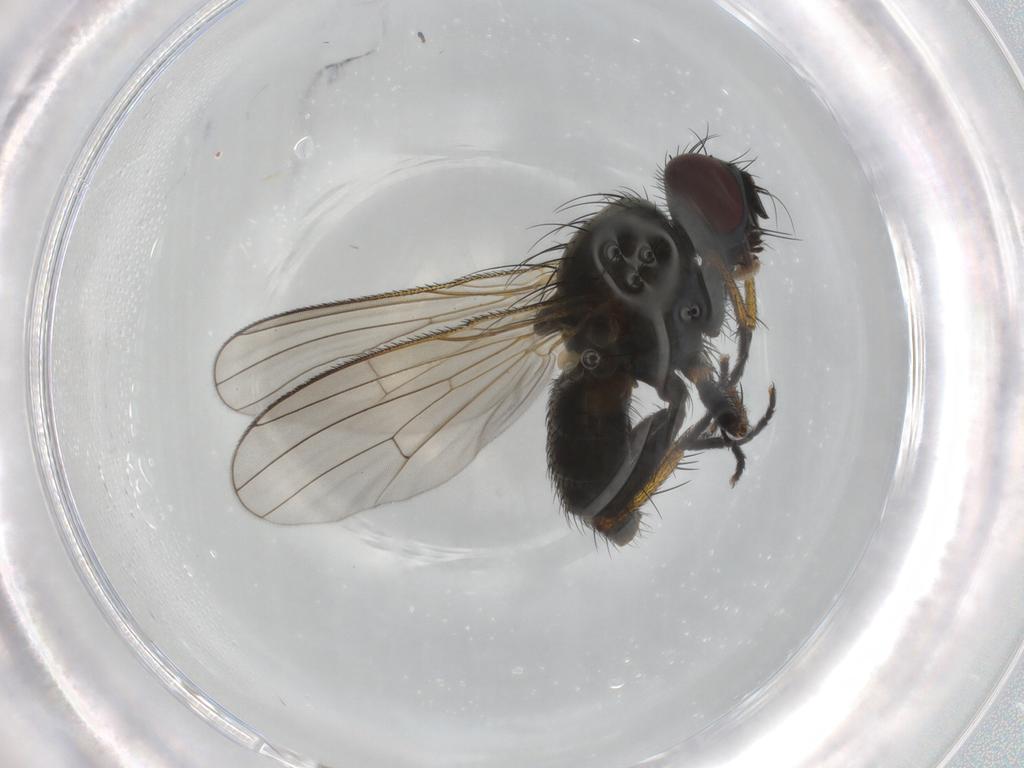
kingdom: Animalia
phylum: Arthropoda
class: Insecta
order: Diptera
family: Muscidae
